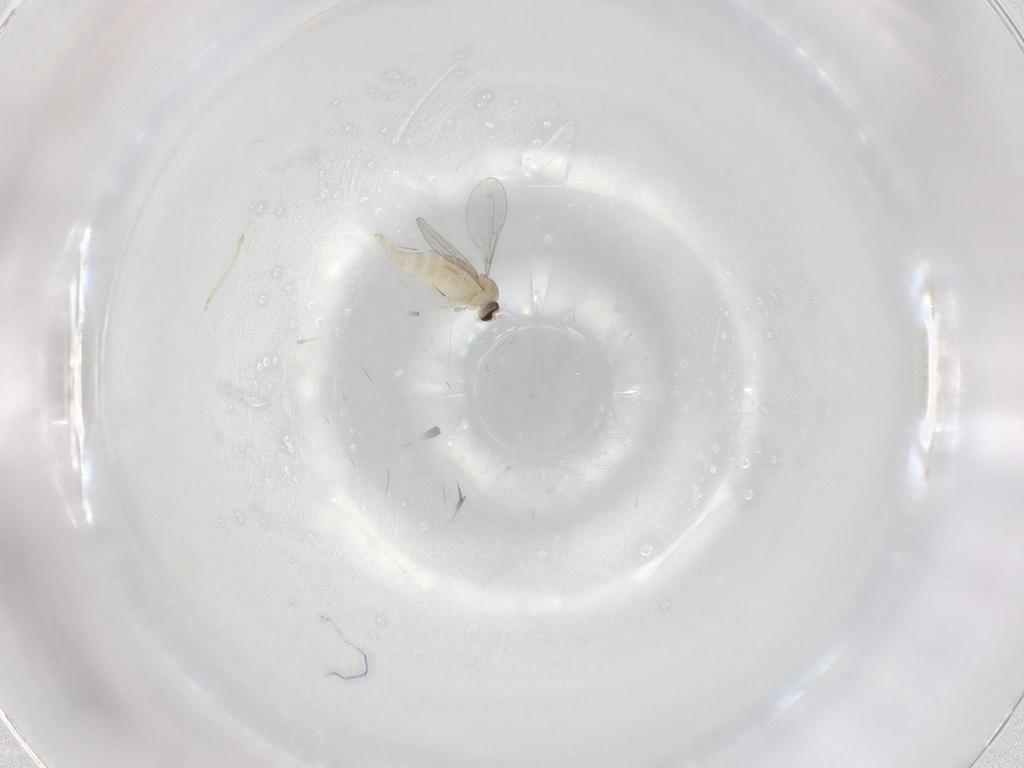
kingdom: Animalia
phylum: Arthropoda
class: Insecta
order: Diptera
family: Cecidomyiidae
